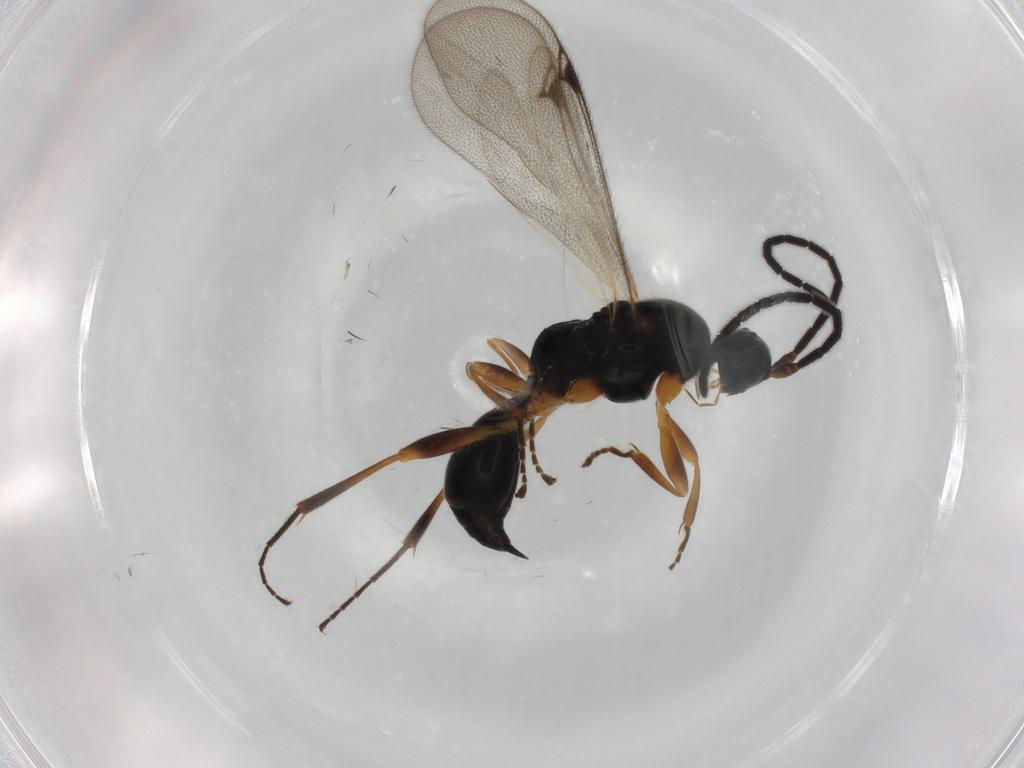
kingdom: Animalia
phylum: Arthropoda
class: Insecta
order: Hymenoptera
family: Proctotrupidae
